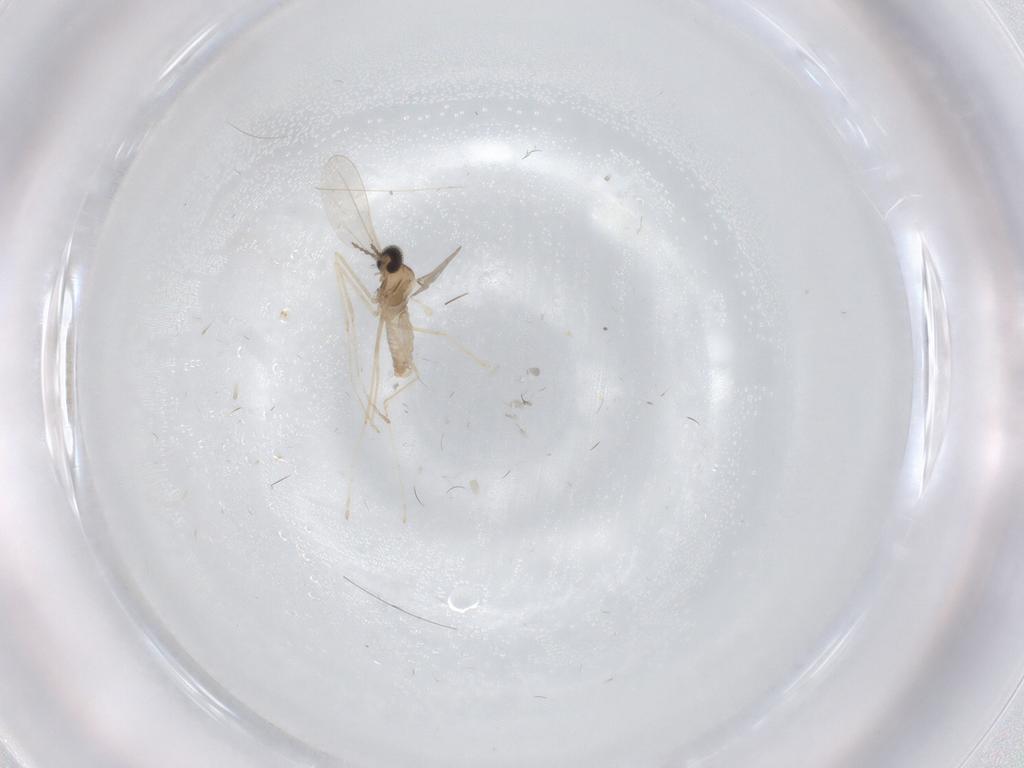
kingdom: Animalia
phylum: Arthropoda
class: Insecta
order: Diptera
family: Cecidomyiidae
